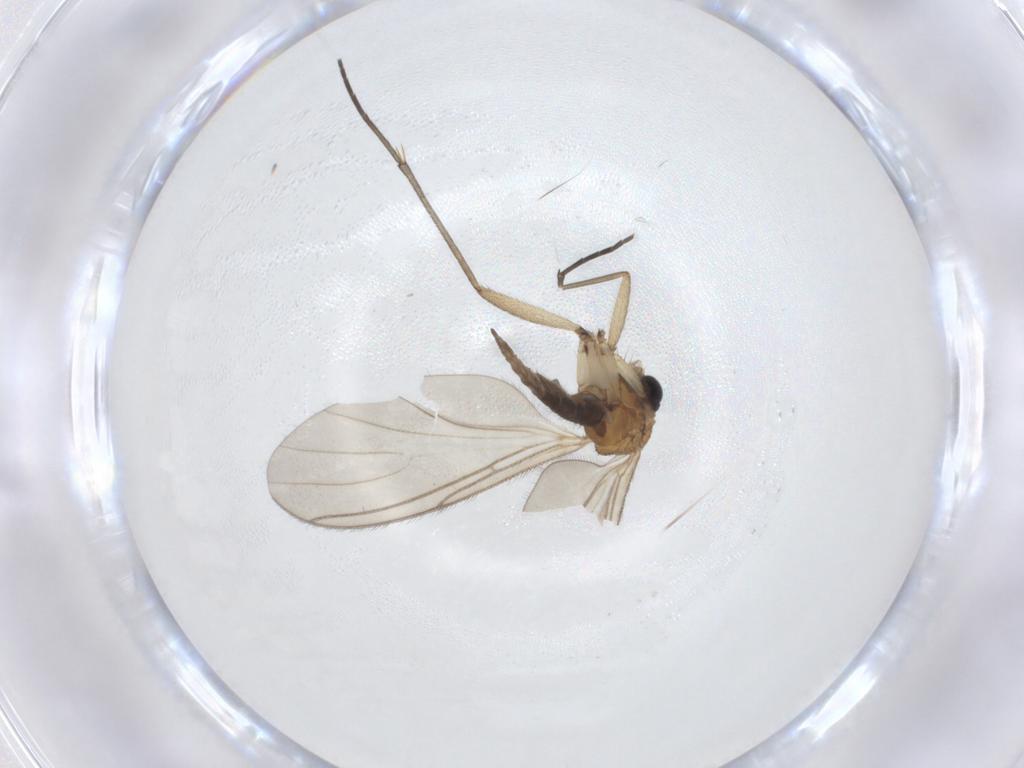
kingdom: Animalia
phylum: Arthropoda
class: Insecta
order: Diptera
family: Sciaridae
